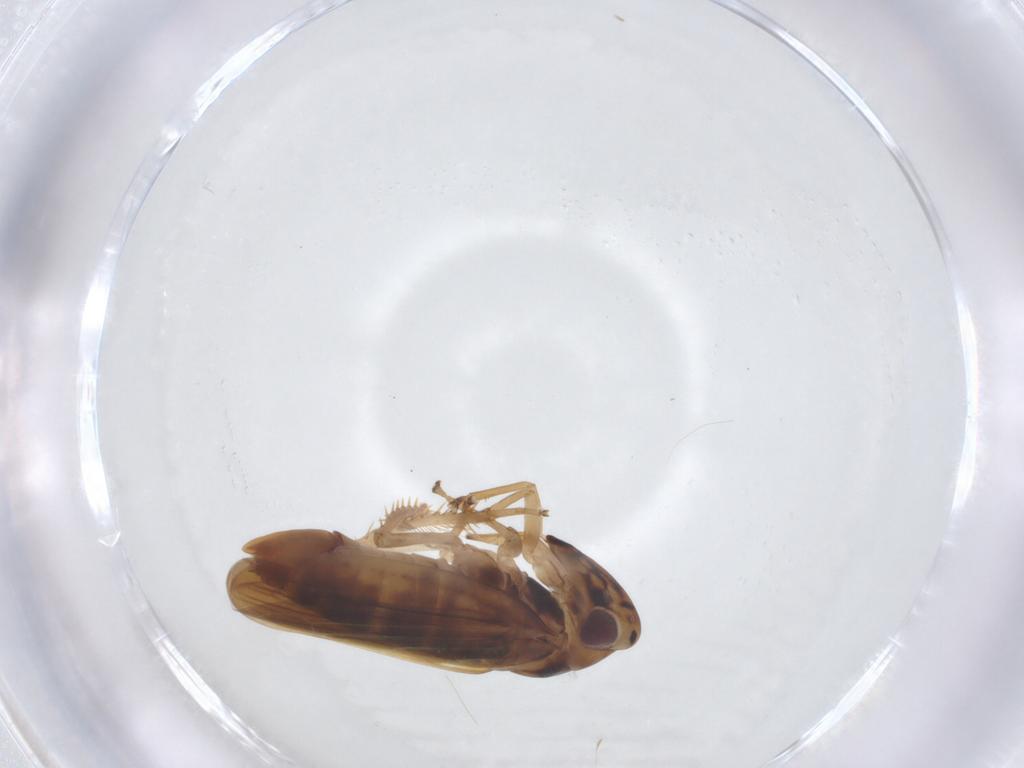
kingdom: Animalia
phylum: Arthropoda
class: Insecta
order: Hemiptera
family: Cicadellidae
